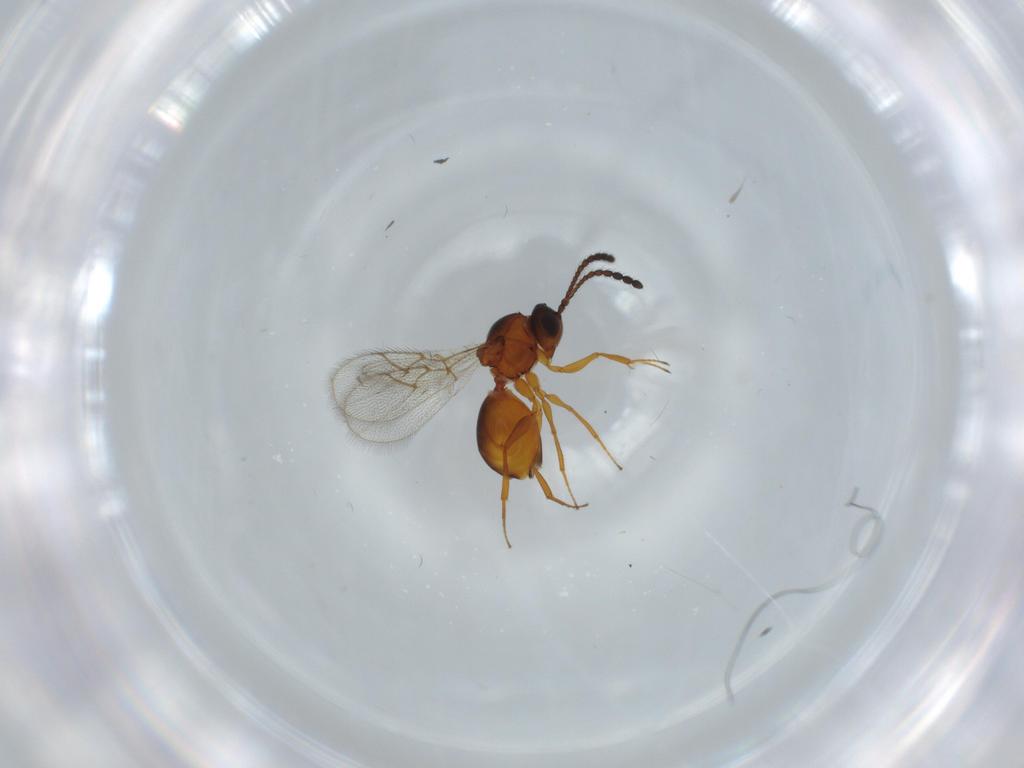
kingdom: Animalia
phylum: Arthropoda
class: Insecta
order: Hymenoptera
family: Figitidae
